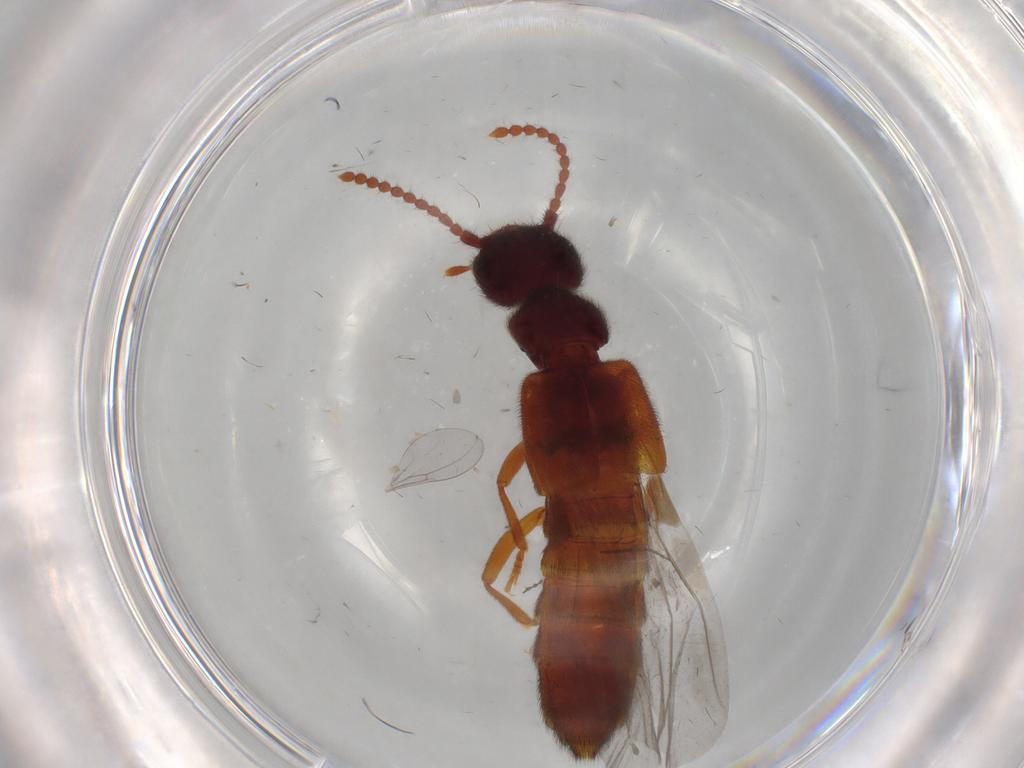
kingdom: Animalia
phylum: Arthropoda
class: Insecta
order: Coleoptera
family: Staphylinidae
